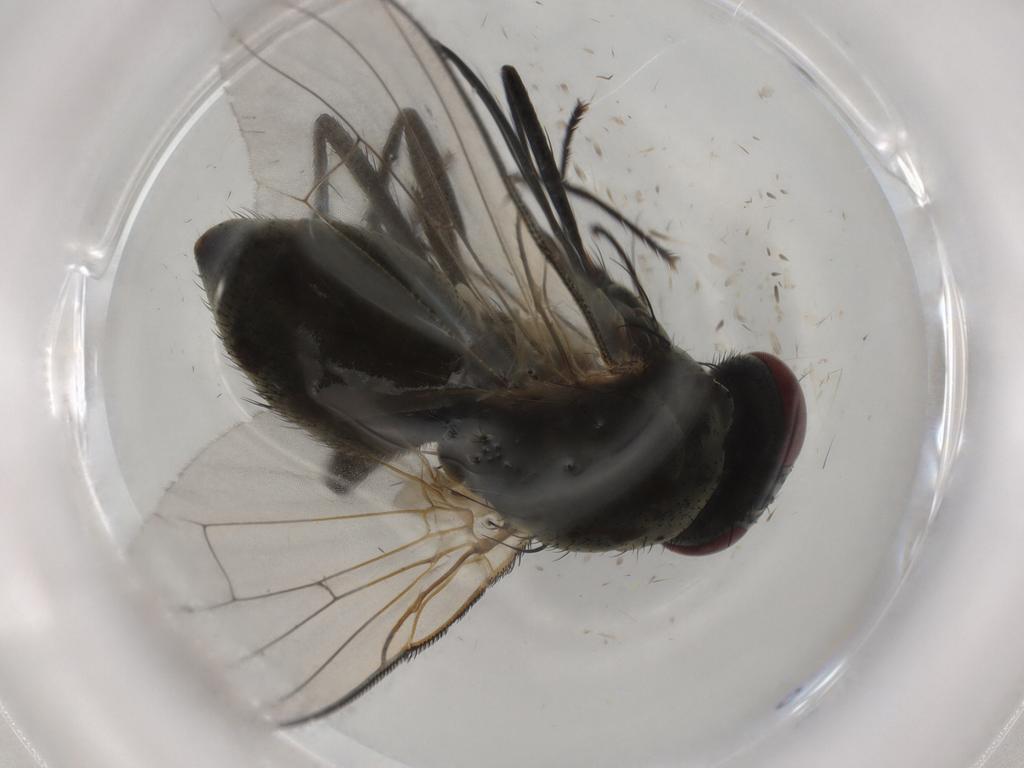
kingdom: Animalia
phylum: Arthropoda
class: Insecta
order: Diptera
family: Muscidae
